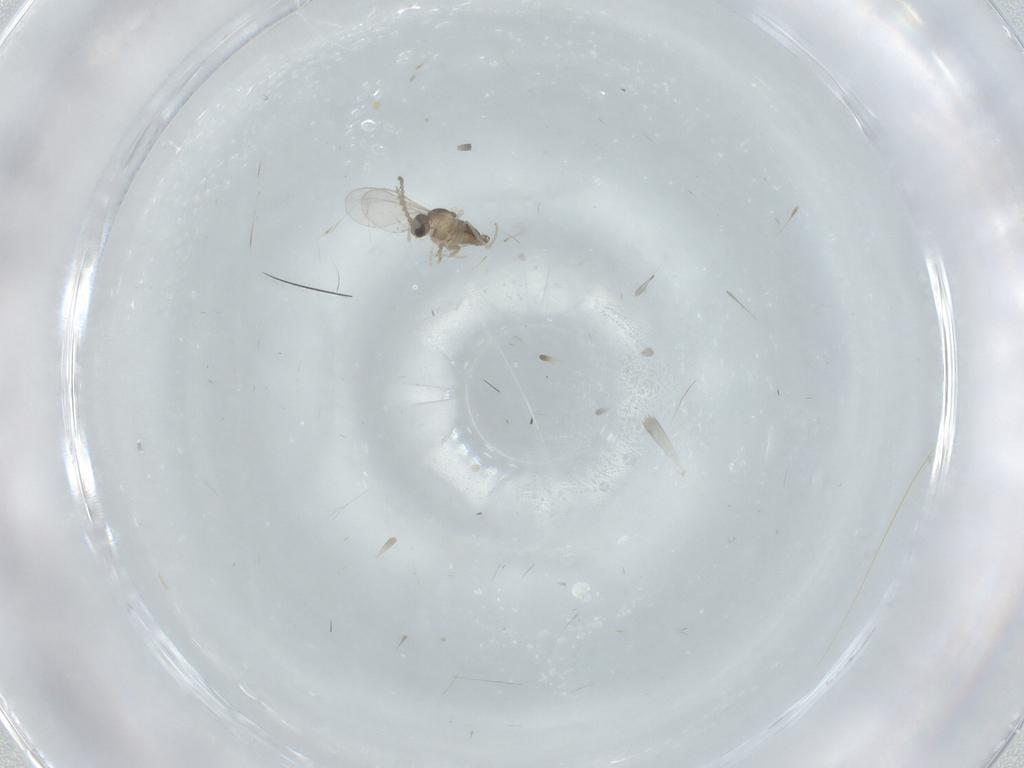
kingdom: Animalia
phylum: Arthropoda
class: Insecta
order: Diptera
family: Cecidomyiidae
